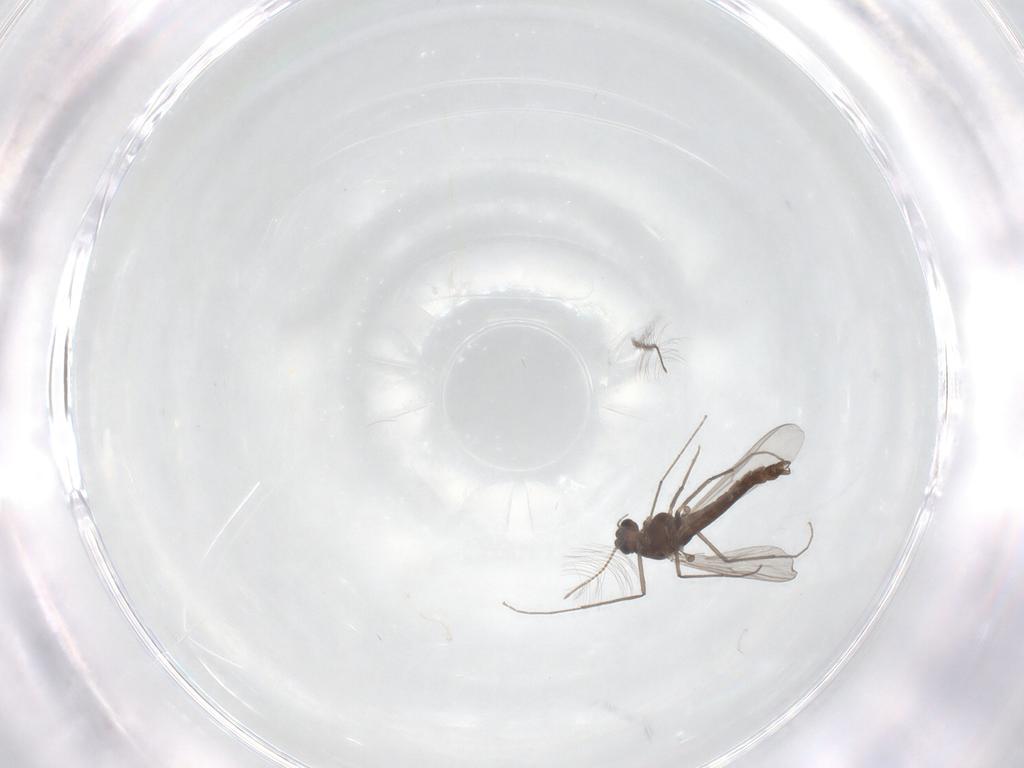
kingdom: Animalia
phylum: Arthropoda
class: Insecta
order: Diptera
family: Chironomidae
